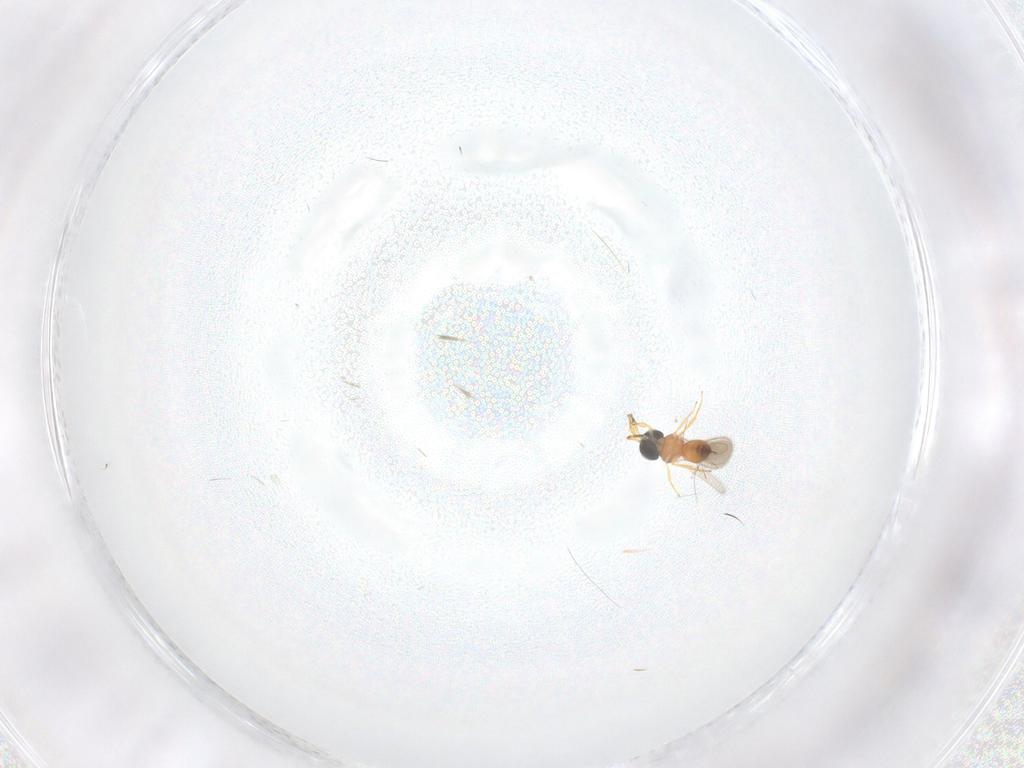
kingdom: Animalia
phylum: Arthropoda
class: Insecta
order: Hymenoptera
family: Scelionidae
